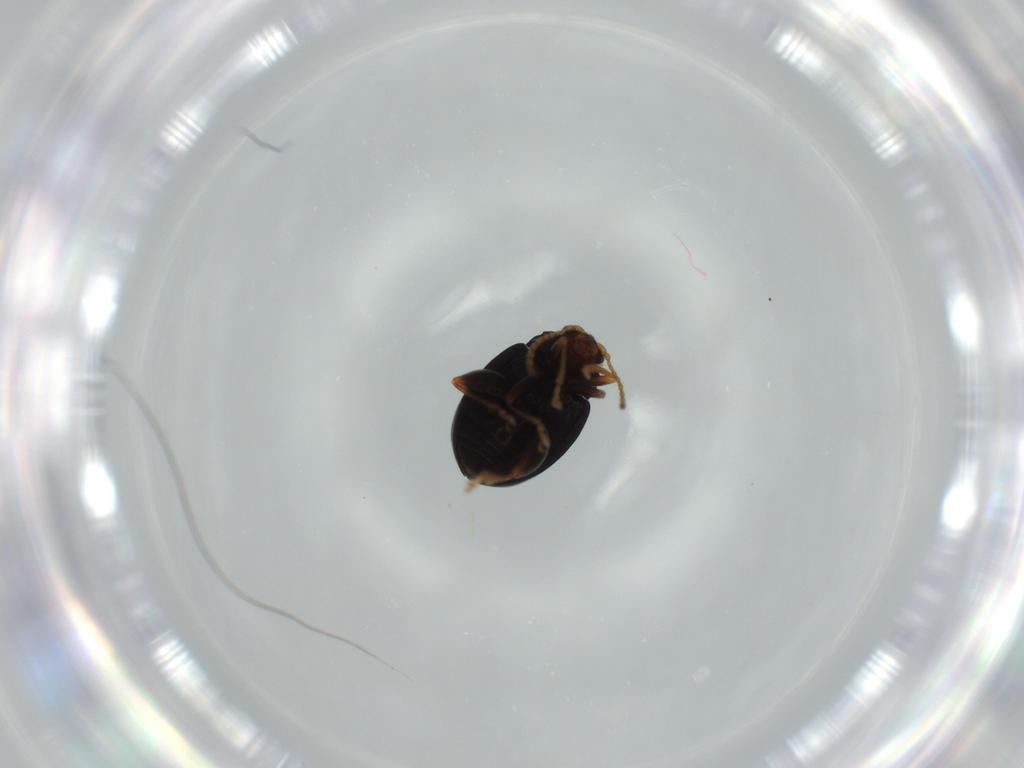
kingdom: Animalia
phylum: Arthropoda
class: Insecta
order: Coleoptera
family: Chrysomelidae
